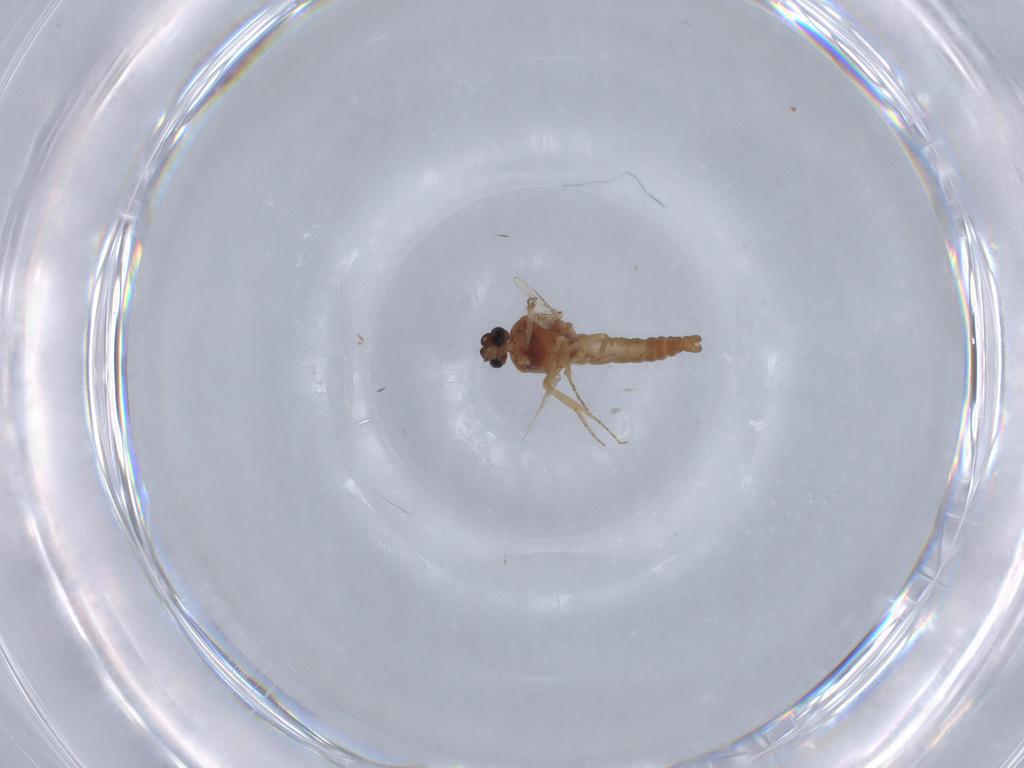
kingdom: Animalia
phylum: Arthropoda
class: Insecta
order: Diptera
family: Ceratopogonidae
